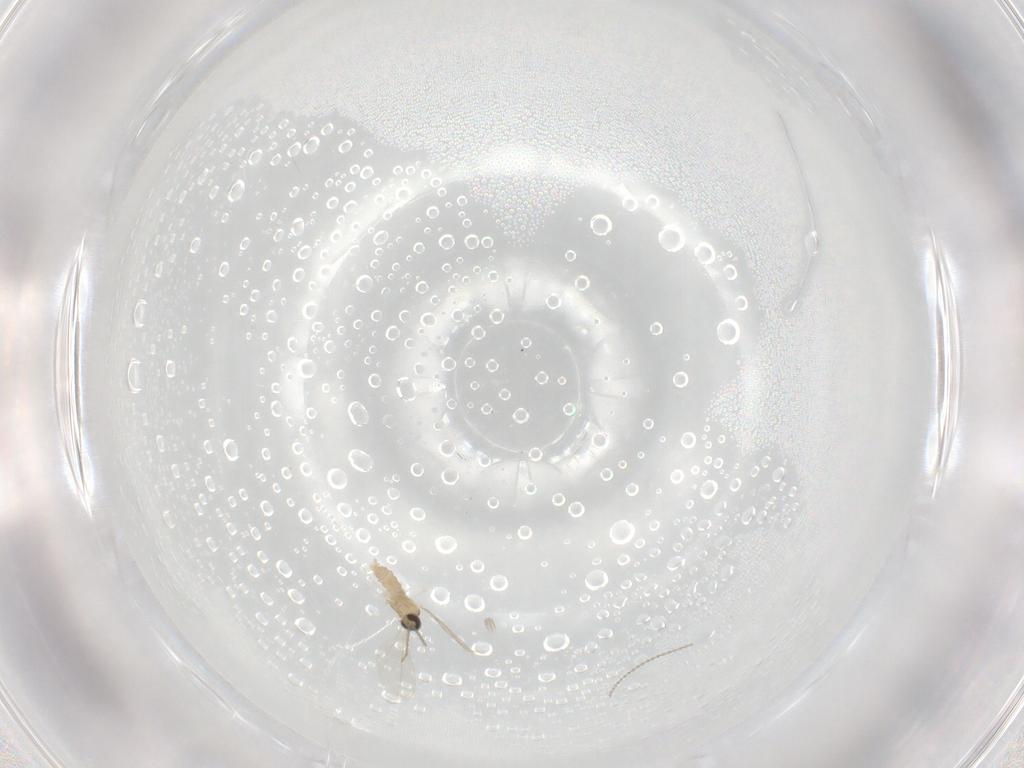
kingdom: Animalia
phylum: Arthropoda
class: Insecta
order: Diptera
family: Cecidomyiidae
